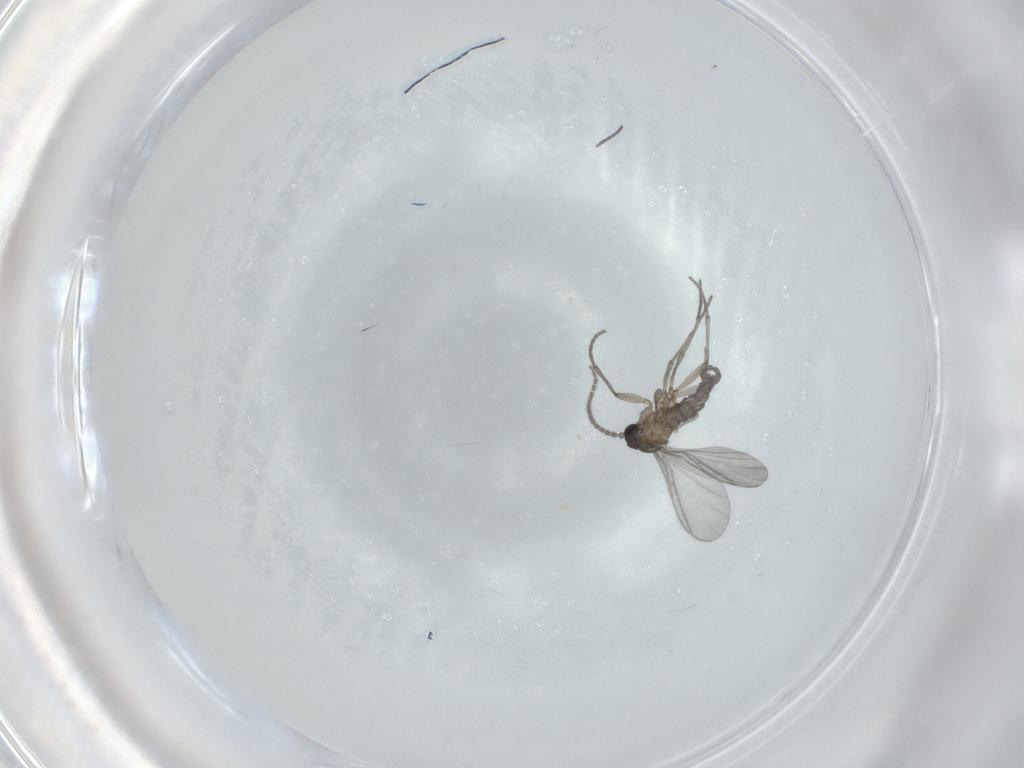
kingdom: Animalia
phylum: Arthropoda
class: Insecta
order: Diptera
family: Sciaridae
